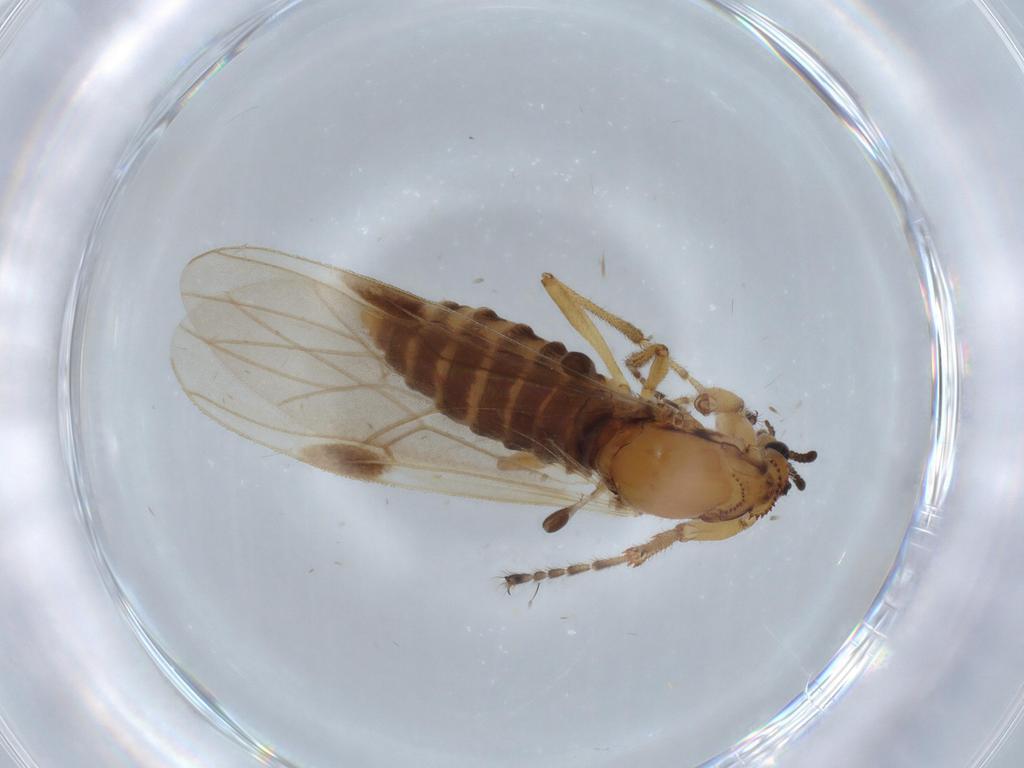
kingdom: Animalia
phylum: Arthropoda
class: Insecta
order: Diptera
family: Bibionidae
